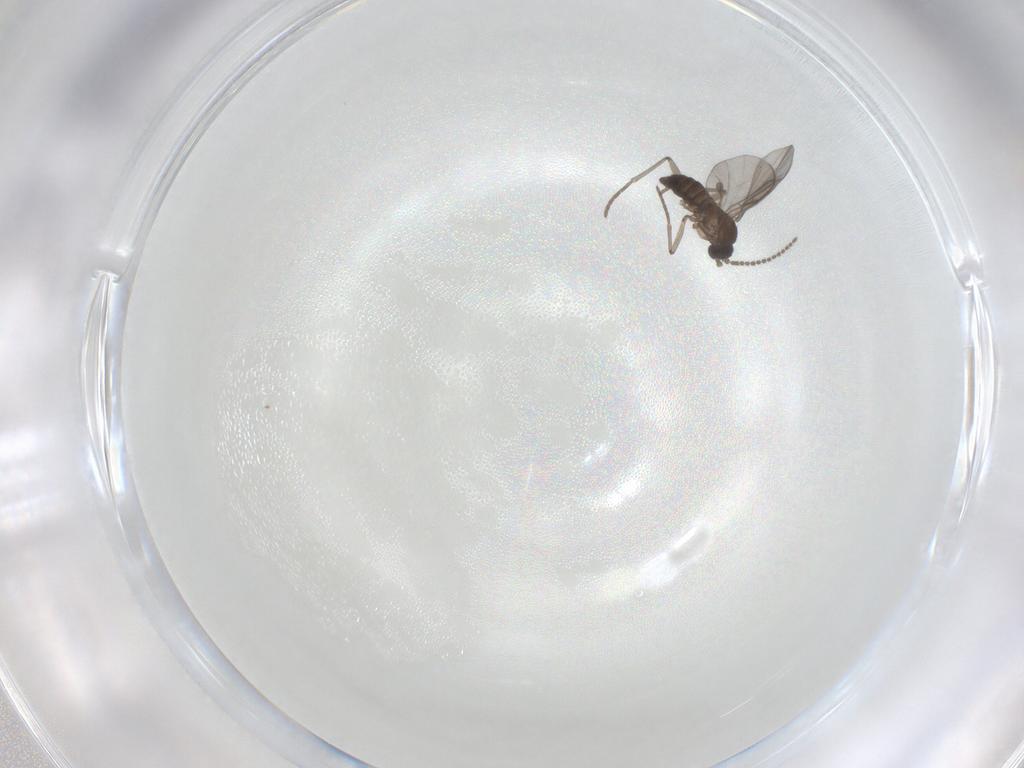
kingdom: Animalia
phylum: Arthropoda
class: Insecta
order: Diptera
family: Sciaridae
